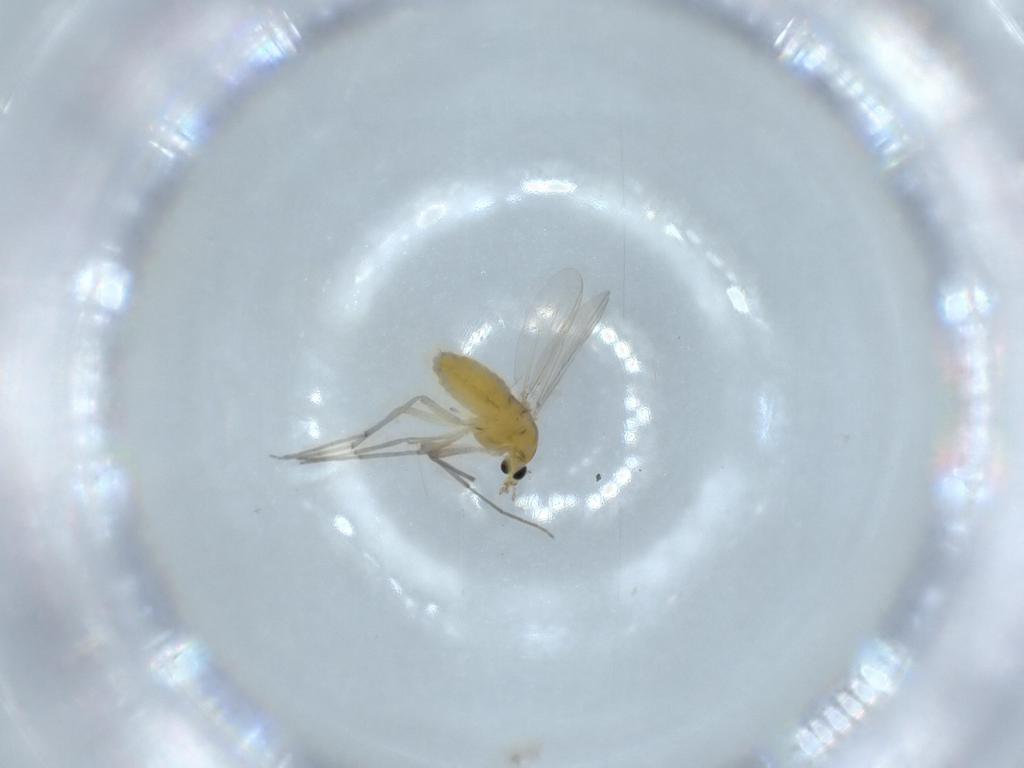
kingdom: Animalia
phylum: Arthropoda
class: Insecta
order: Diptera
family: Chironomidae
